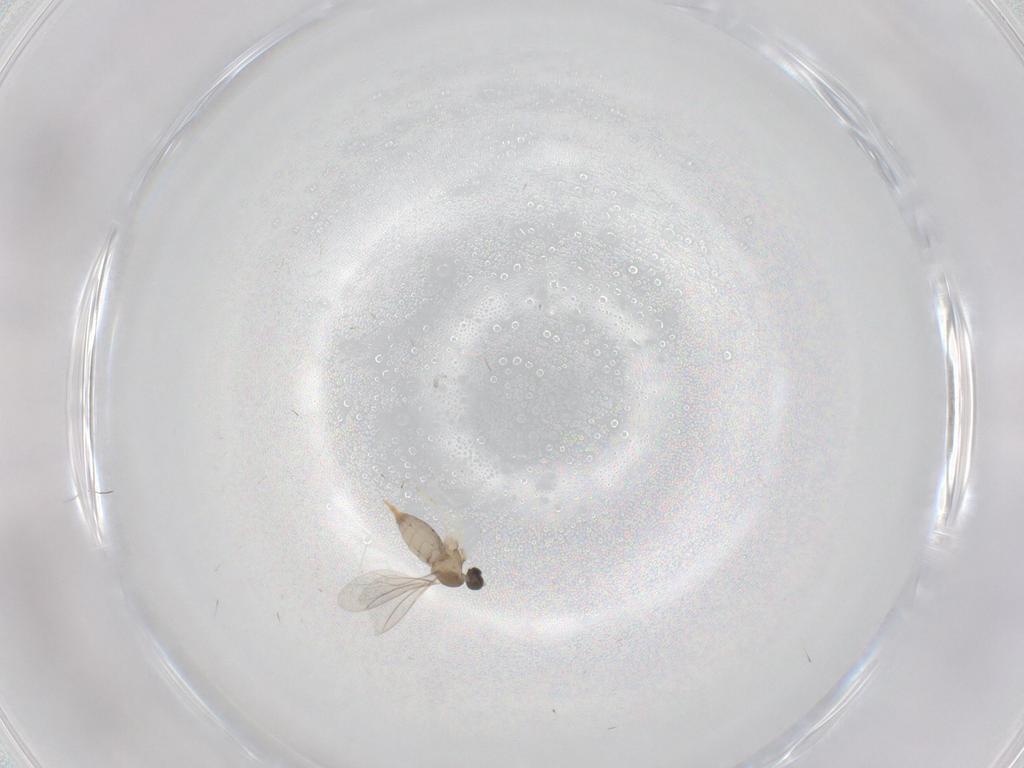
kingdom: Animalia
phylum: Arthropoda
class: Insecta
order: Diptera
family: Cecidomyiidae
